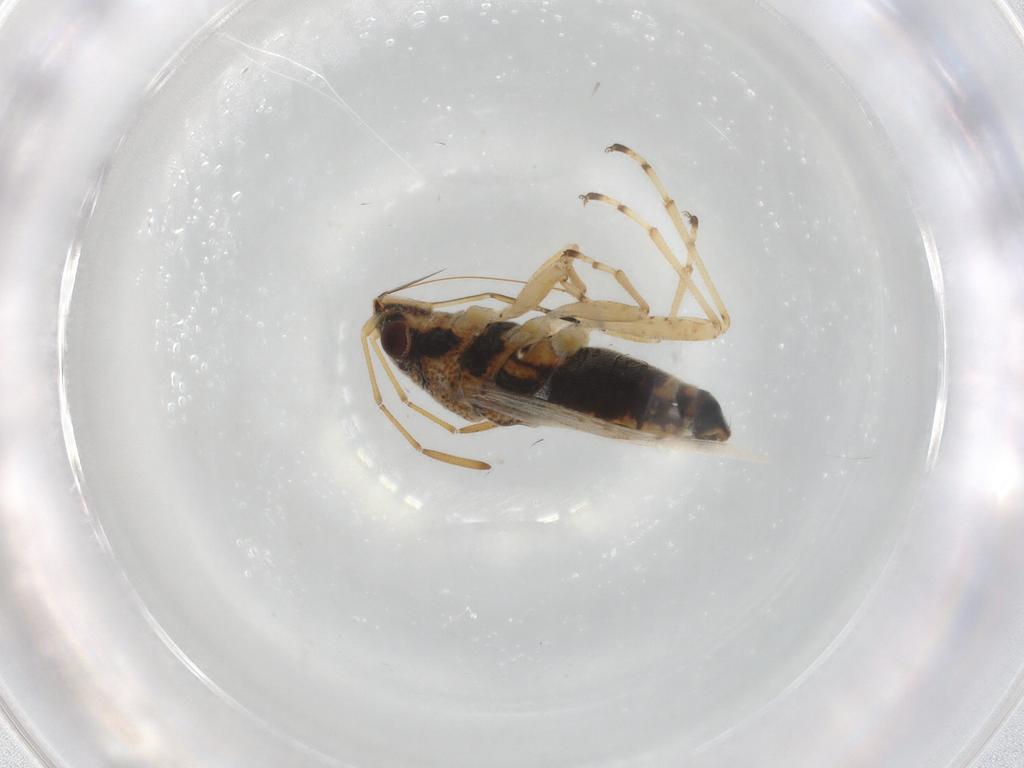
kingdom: Animalia
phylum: Arthropoda
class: Insecta
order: Hemiptera
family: Lygaeidae
